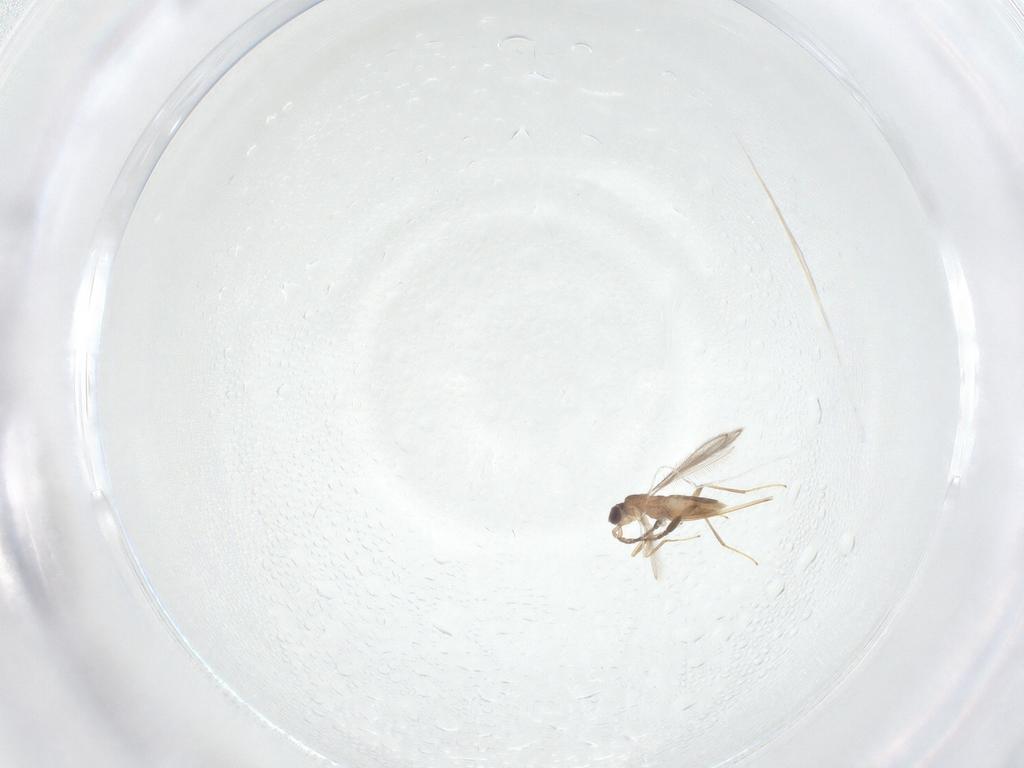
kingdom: Animalia
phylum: Arthropoda
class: Insecta
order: Hymenoptera
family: Mymaridae
